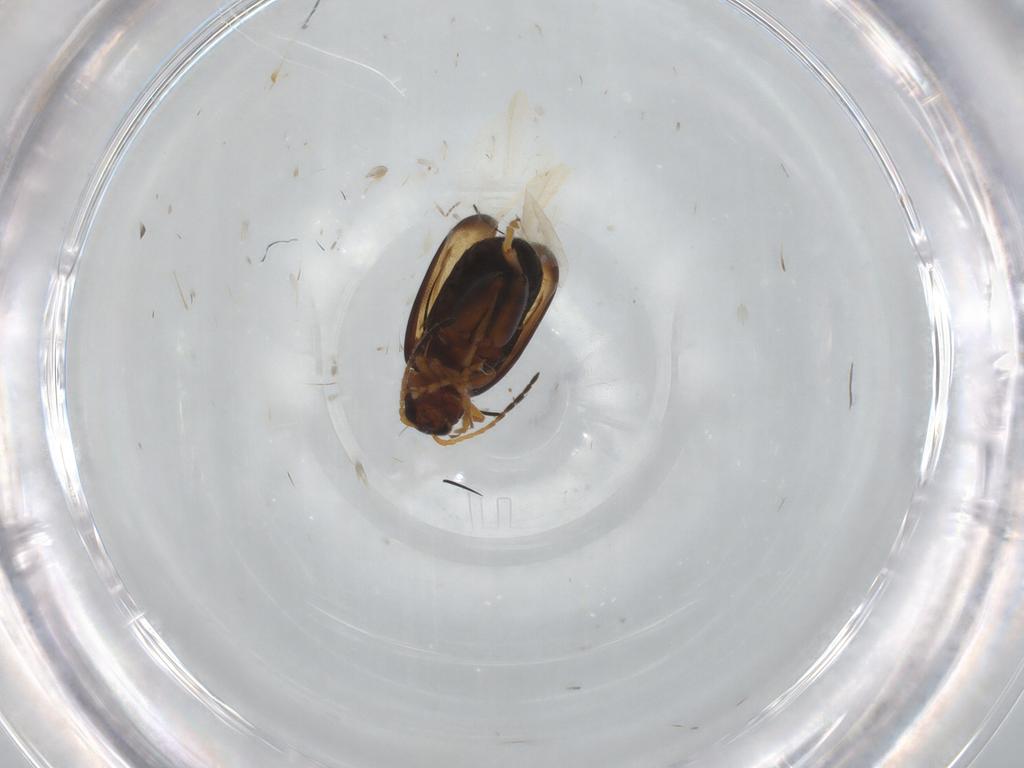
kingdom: Animalia
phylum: Arthropoda
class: Insecta
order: Coleoptera
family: Chrysomelidae
